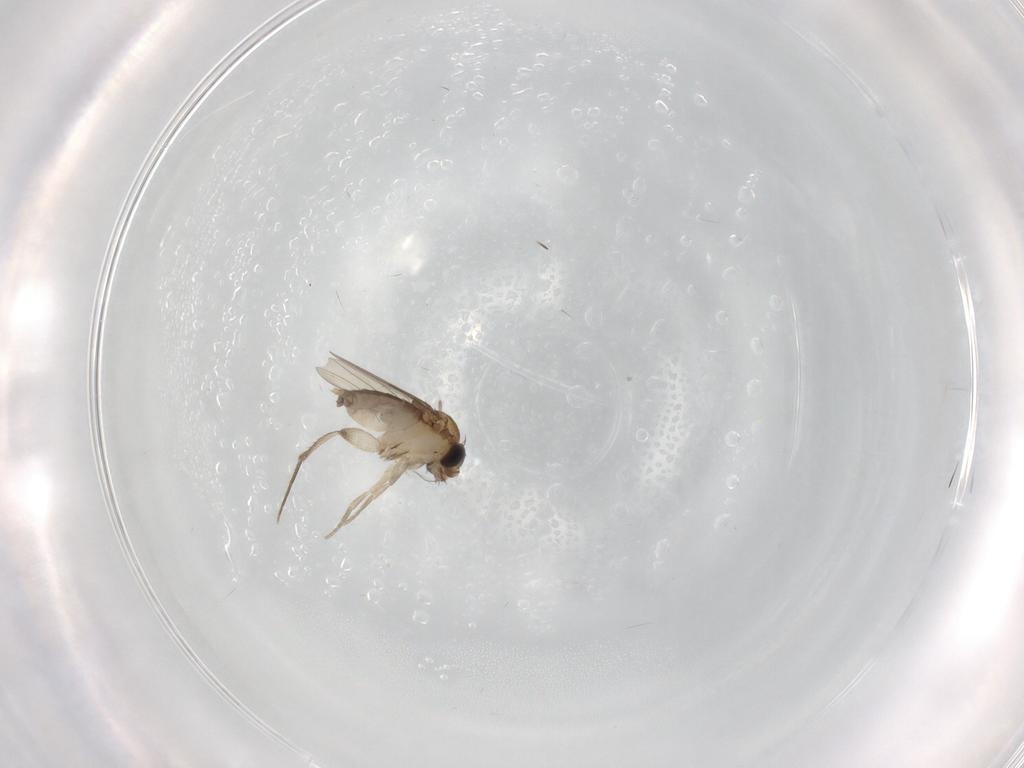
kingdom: Animalia
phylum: Arthropoda
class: Insecta
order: Diptera
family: Phoridae
